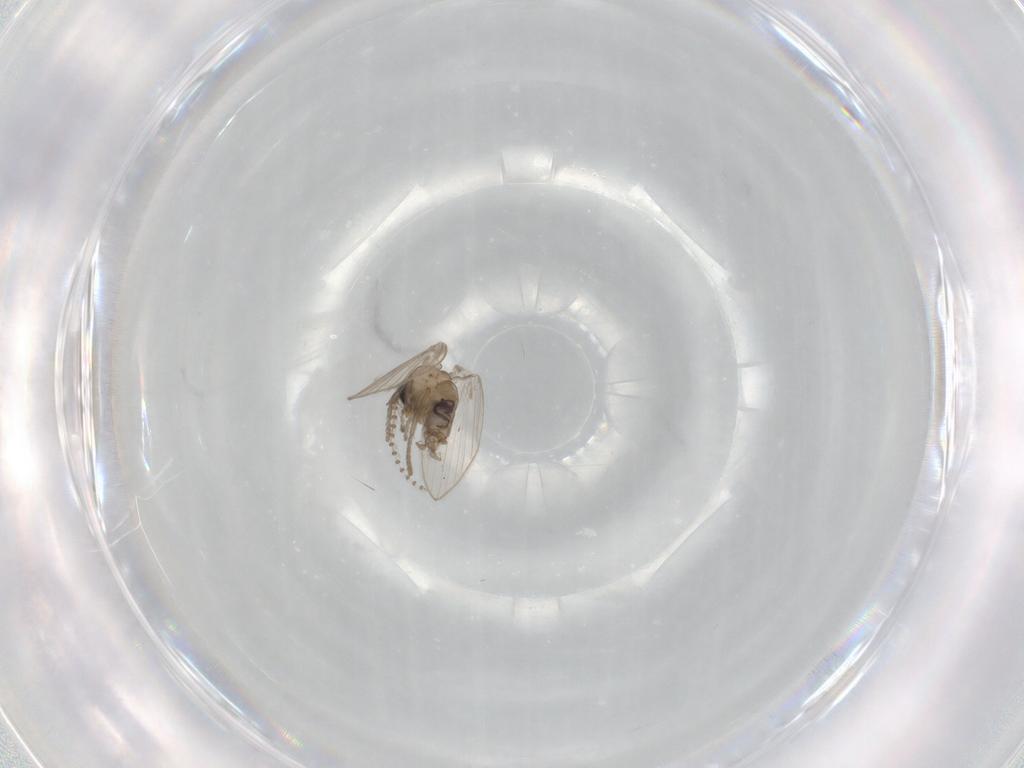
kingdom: Animalia
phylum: Arthropoda
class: Insecta
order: Diptera
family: Psychodidae
